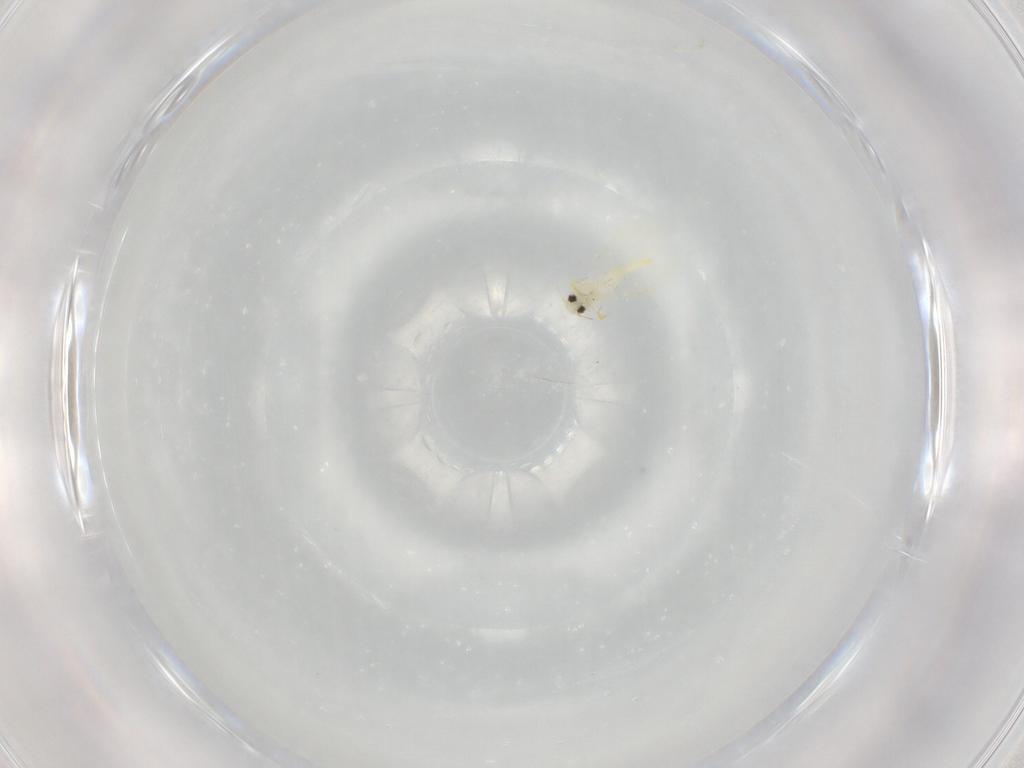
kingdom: Animalia
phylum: Arthropoda
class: Insecta
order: Hemiptera
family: Aleyrodidae
